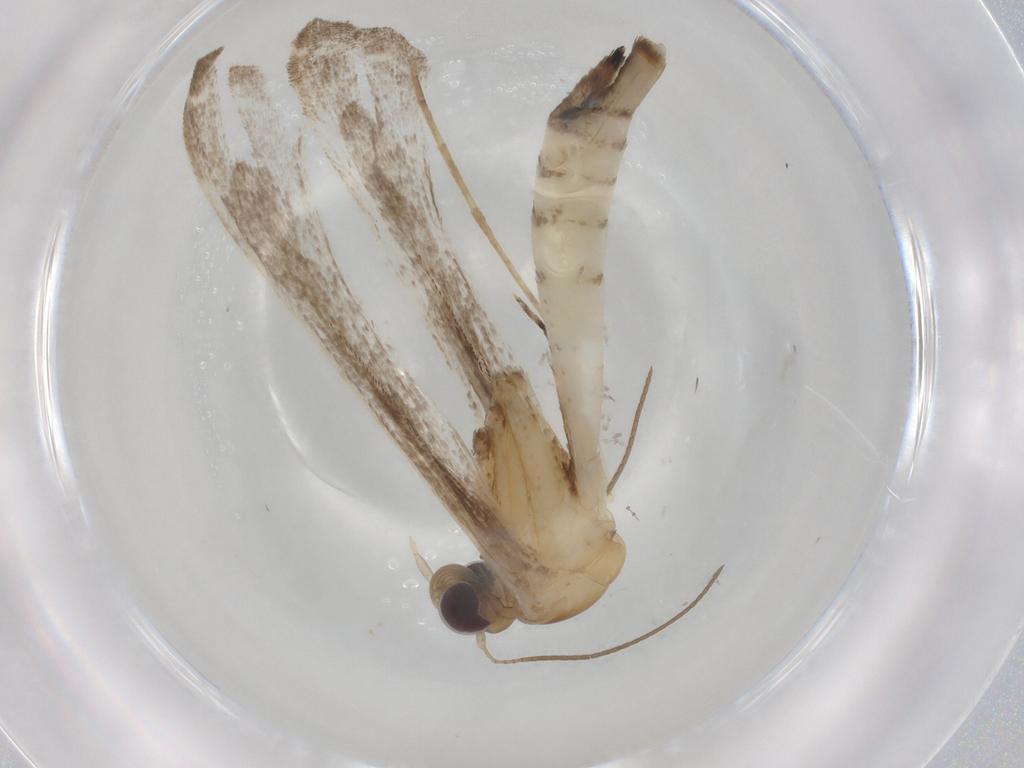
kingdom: Animalia
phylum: Arthropoda
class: Insecta
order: Lepidoptera
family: Autostichidae
